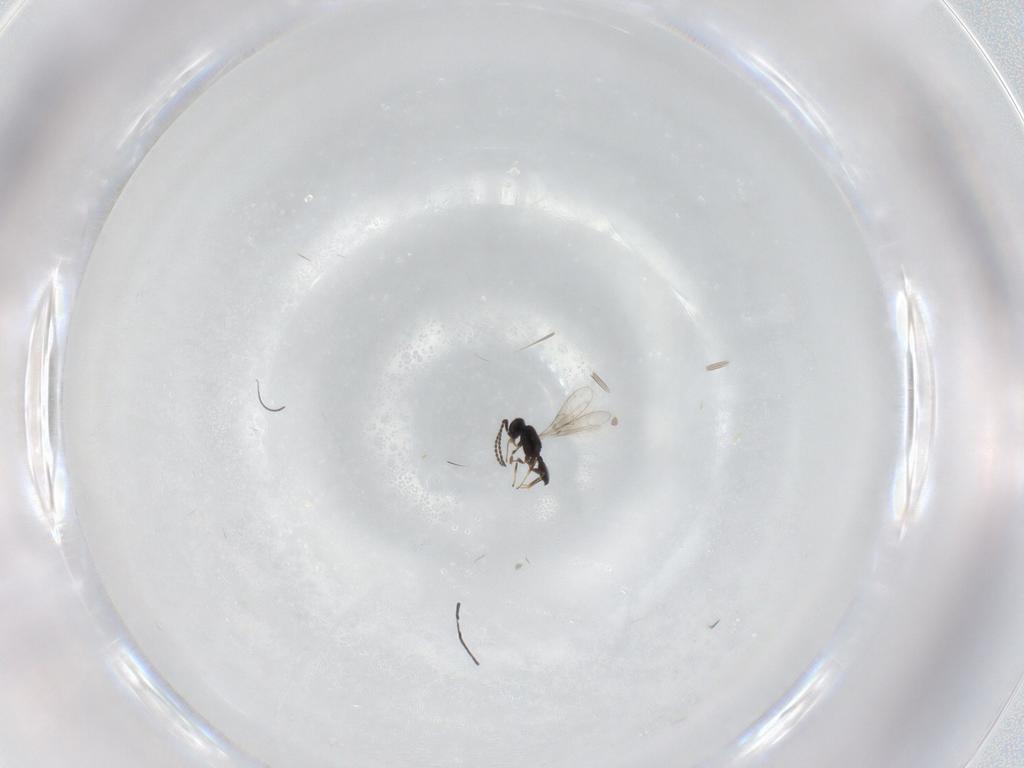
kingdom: Animalia
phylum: Arthropoda
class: Insecta
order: Hymenoptera
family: Scelionidae
